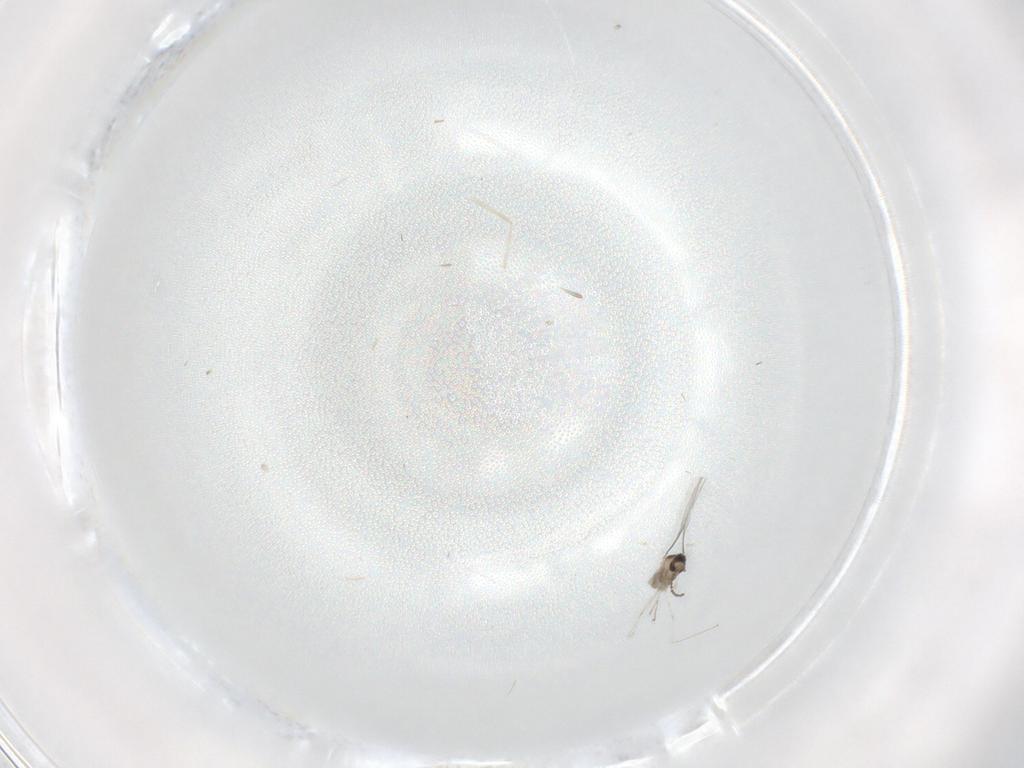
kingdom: Animalia
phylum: Arthropoda
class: Insecta
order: Diptera
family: Cecidomyiidae
